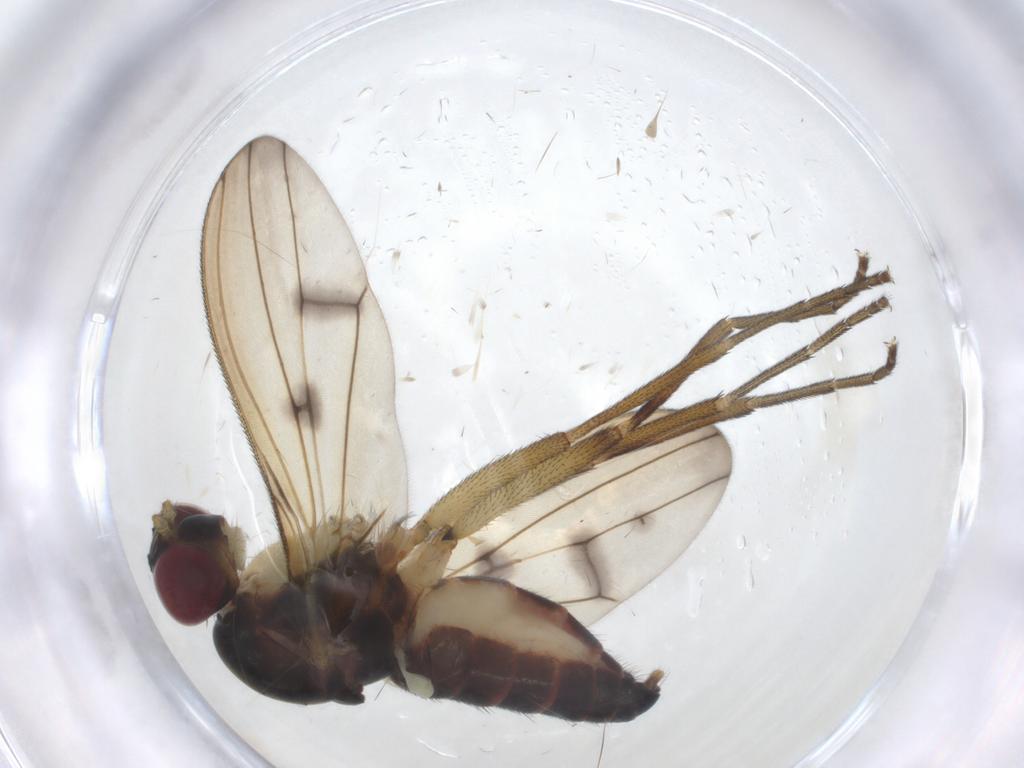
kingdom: Animalia
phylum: Arthropoda
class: Insecta
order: Diptera
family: Sciomyzidae
